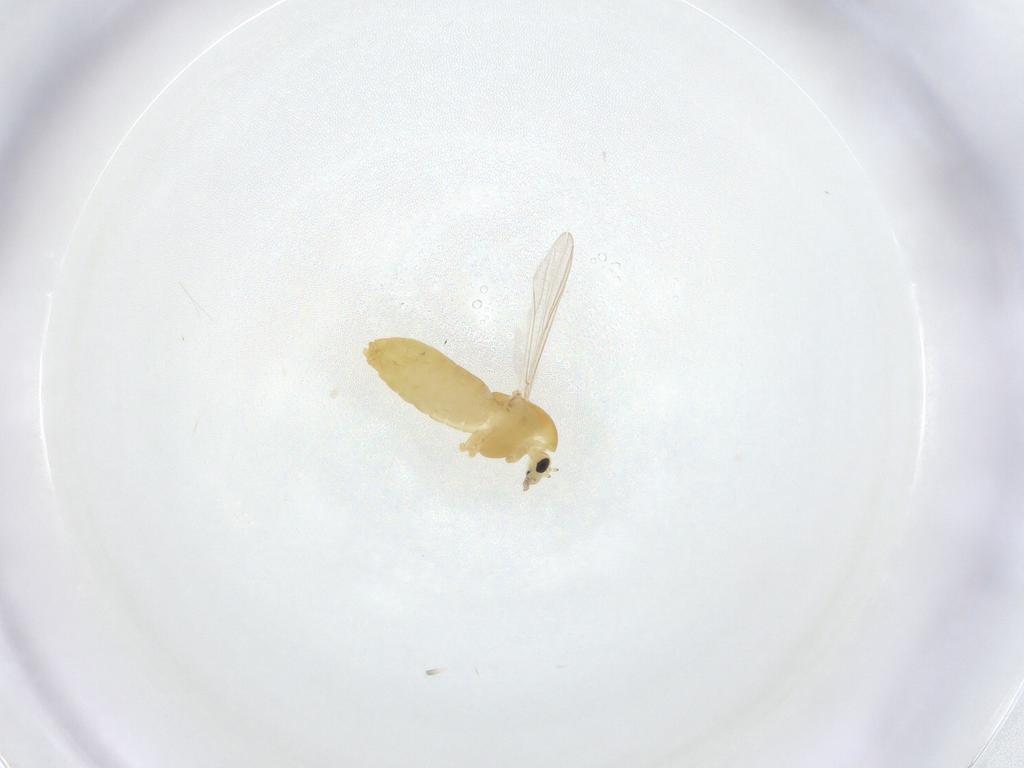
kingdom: Animalia
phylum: Arthropoda
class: Insecta
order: Diptera
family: Chironomidae
